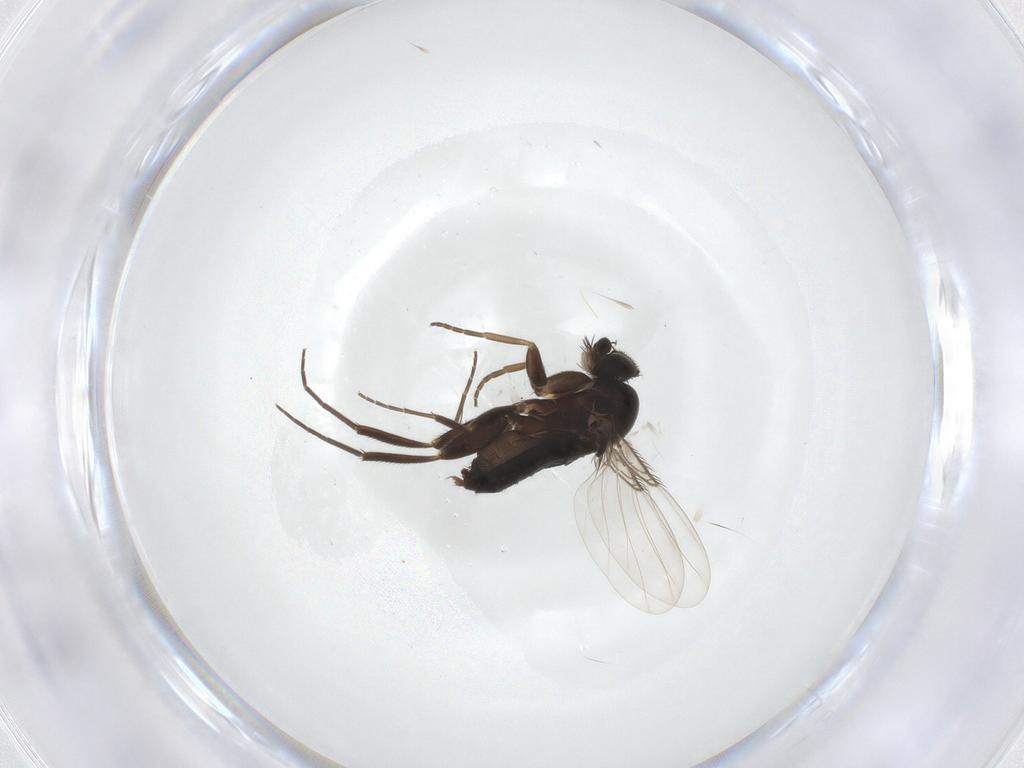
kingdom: Animalia
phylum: Arthropoda
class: Insecta
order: Diptera
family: Phoridae
